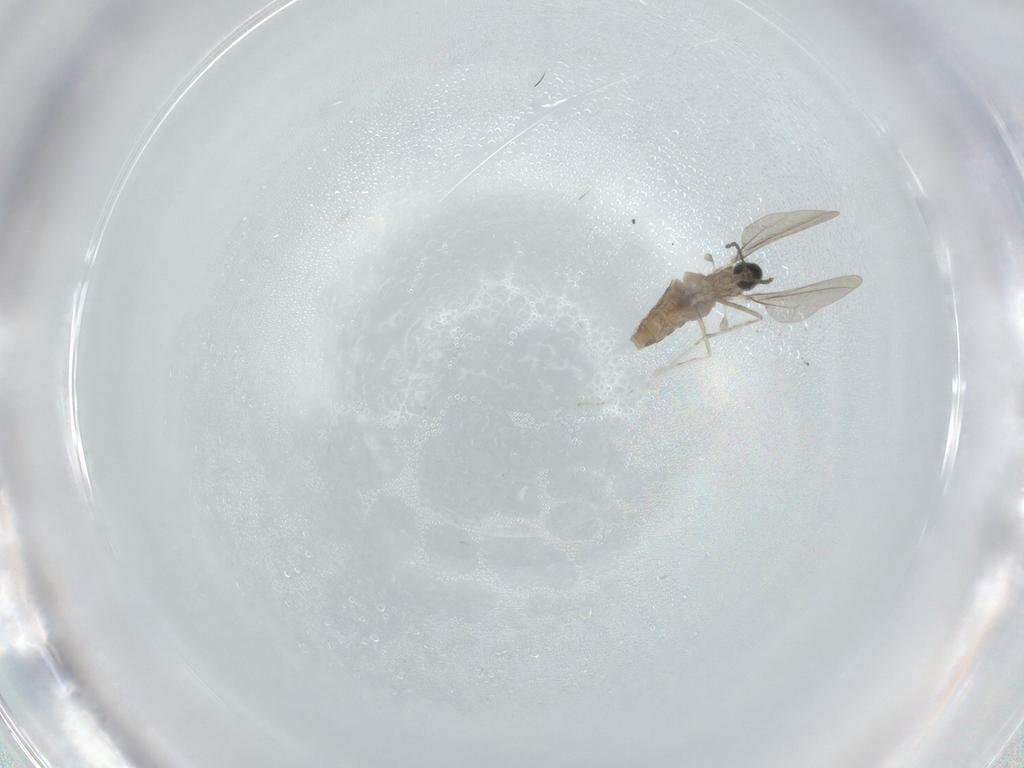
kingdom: Animalia
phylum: Arthropoda
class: Insecta
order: Diptera
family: Cecidomyiidae
